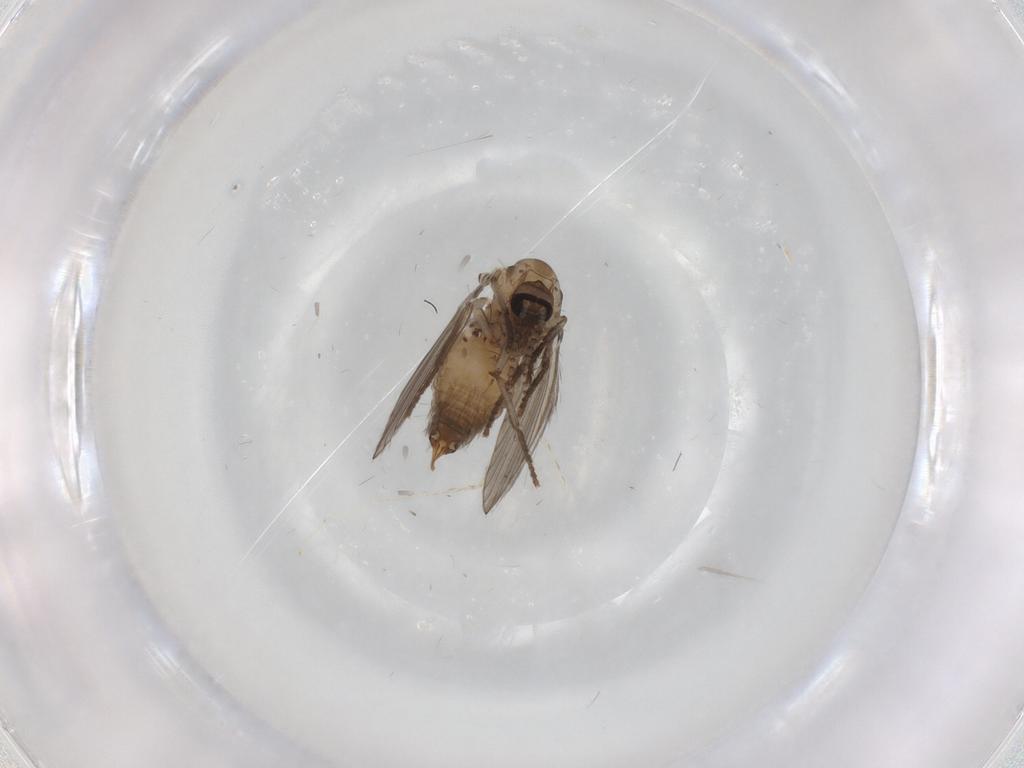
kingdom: Animalia
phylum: Arthropoda
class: Insecta
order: Diptera
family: Psychodidae
